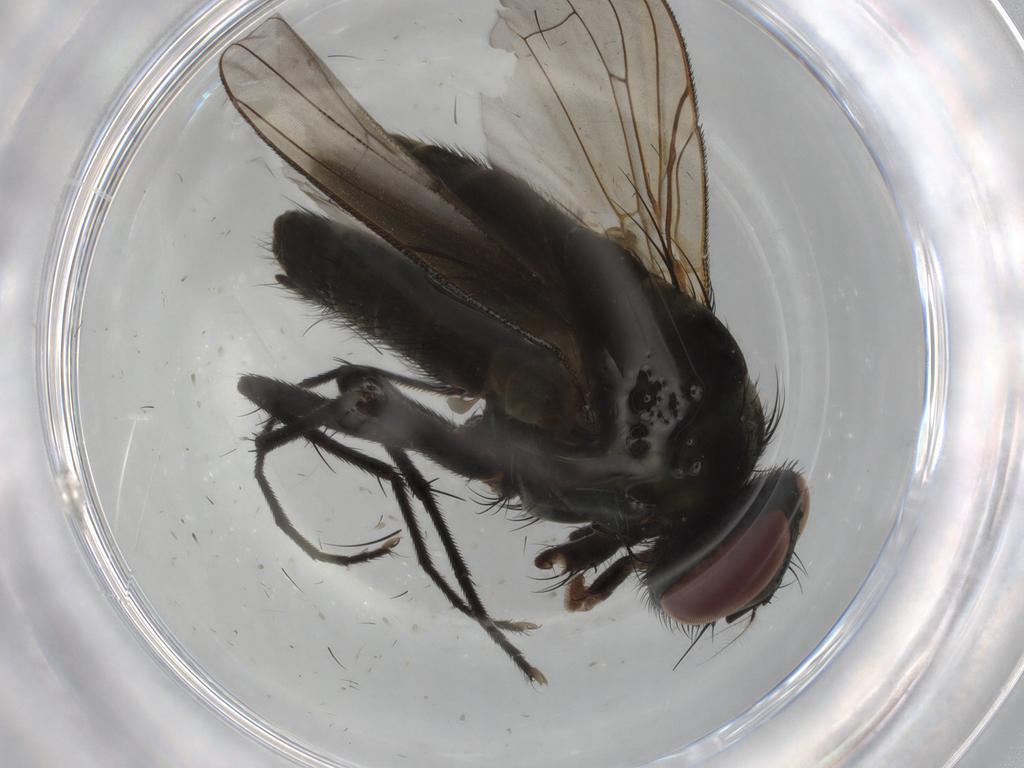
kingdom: Animalia
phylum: Arthropoda
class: Insecta
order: Diptera
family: Muscidae
